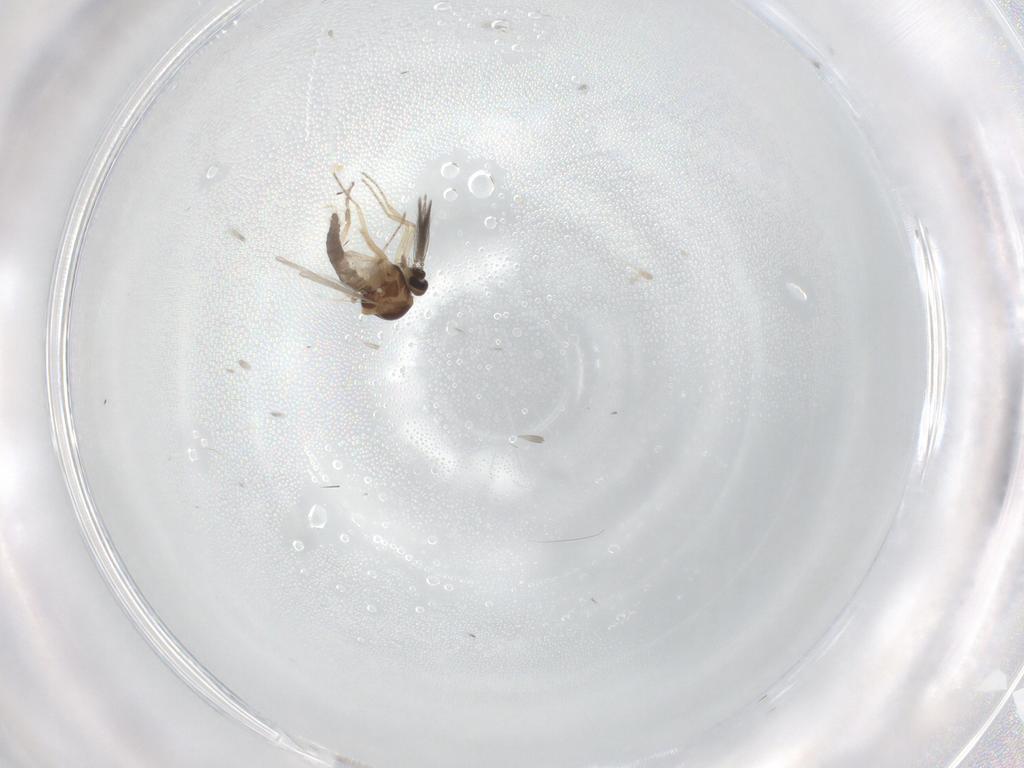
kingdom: Animalia
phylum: Arthropoda
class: Insecta
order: Diptera
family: Ceratopogonidae
